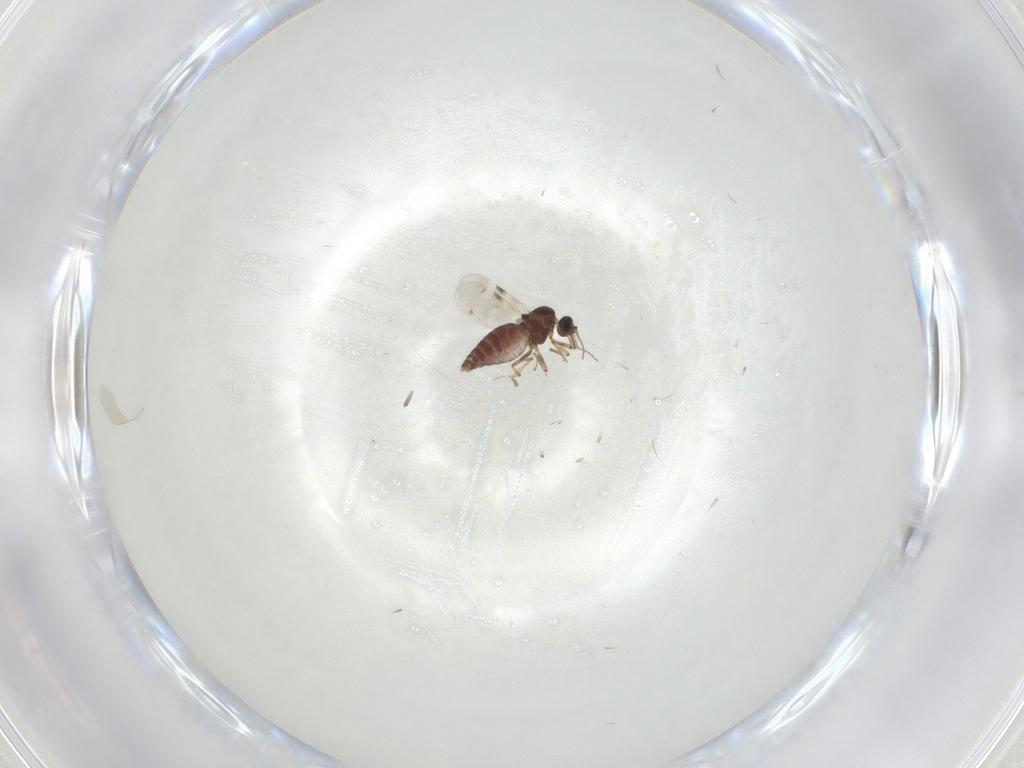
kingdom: Animalia
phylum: Arthropoda
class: Insecta
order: Diptera
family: Ceratopogonidae
